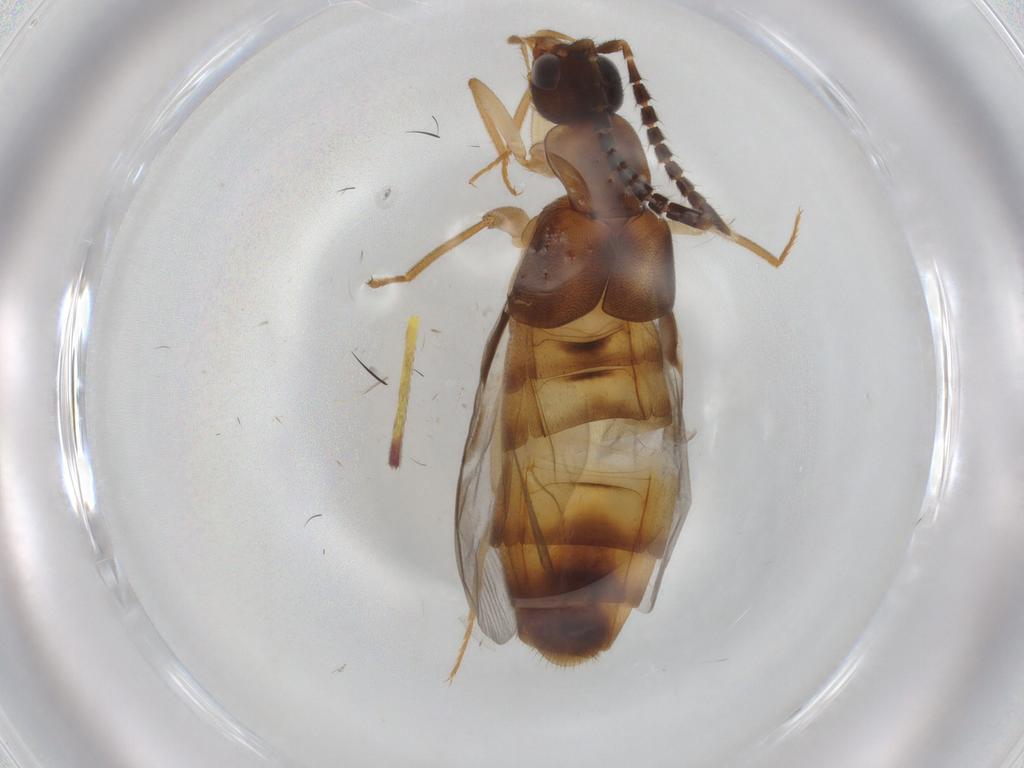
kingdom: Animalia
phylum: Arthropoda
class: Insecta
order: Coleoptera
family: Staphylinidae
